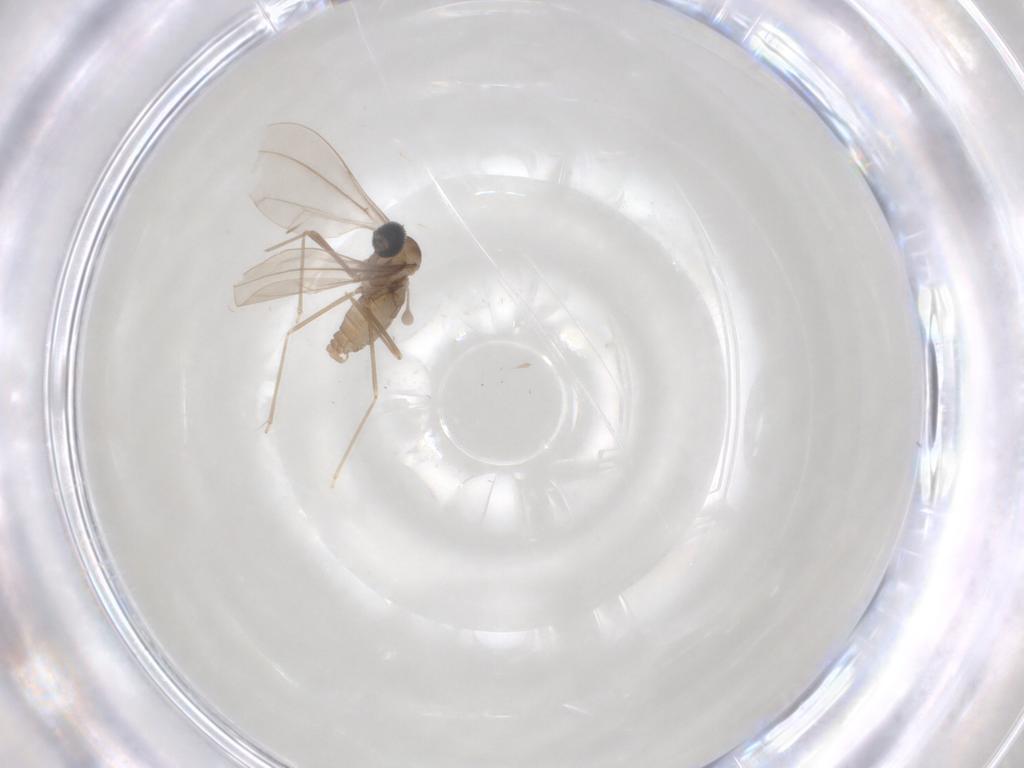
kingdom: Animalia
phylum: Arthropoda
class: Insecta
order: Diptera
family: Cecidomyiidae
